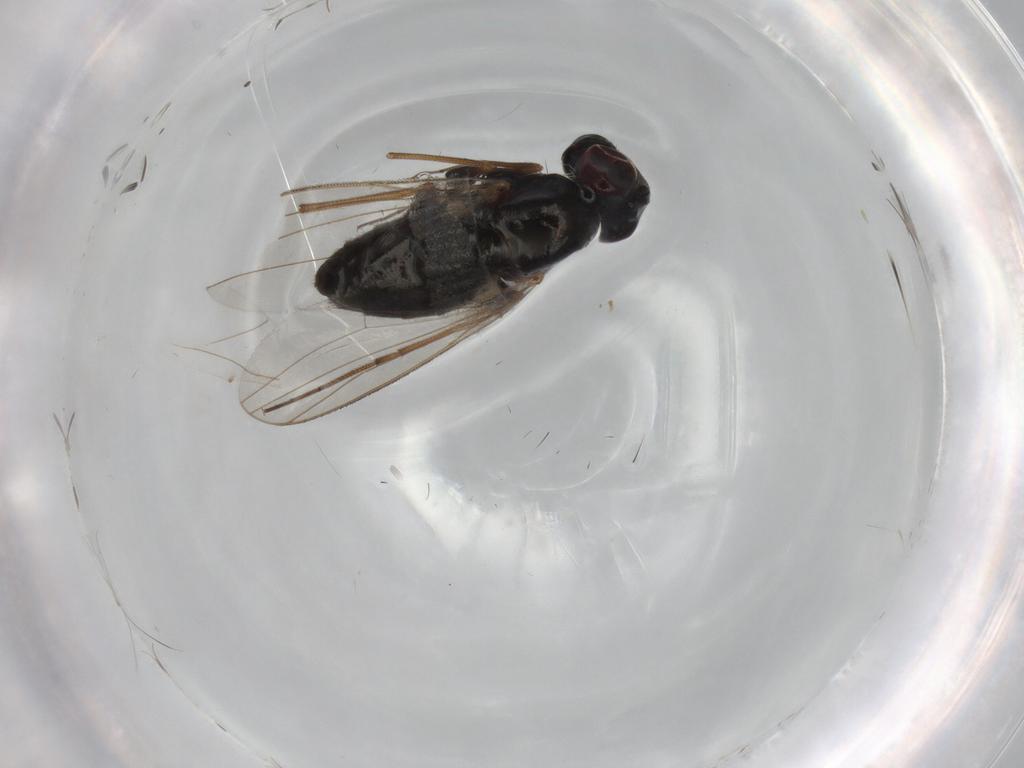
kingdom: Animalia
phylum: Arthropoda
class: Insecta
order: Diptera
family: Dolichopodidae
